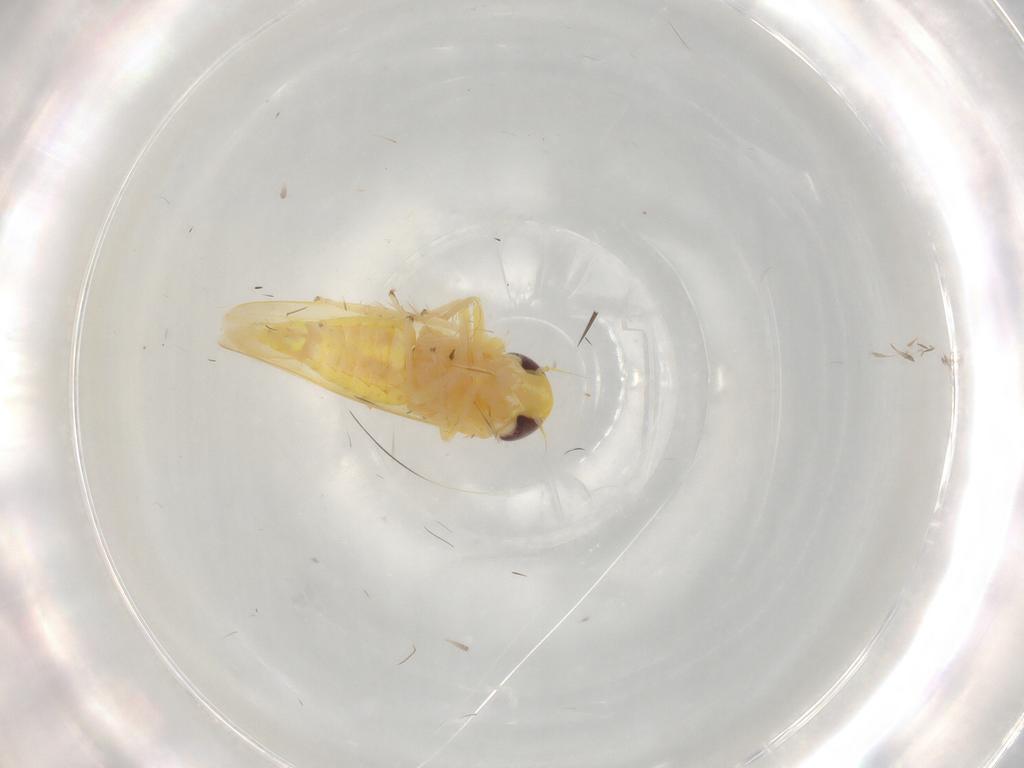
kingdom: Animalia
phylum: Arthropoda
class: Insecta
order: Hemiptera
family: Cicadellidae
